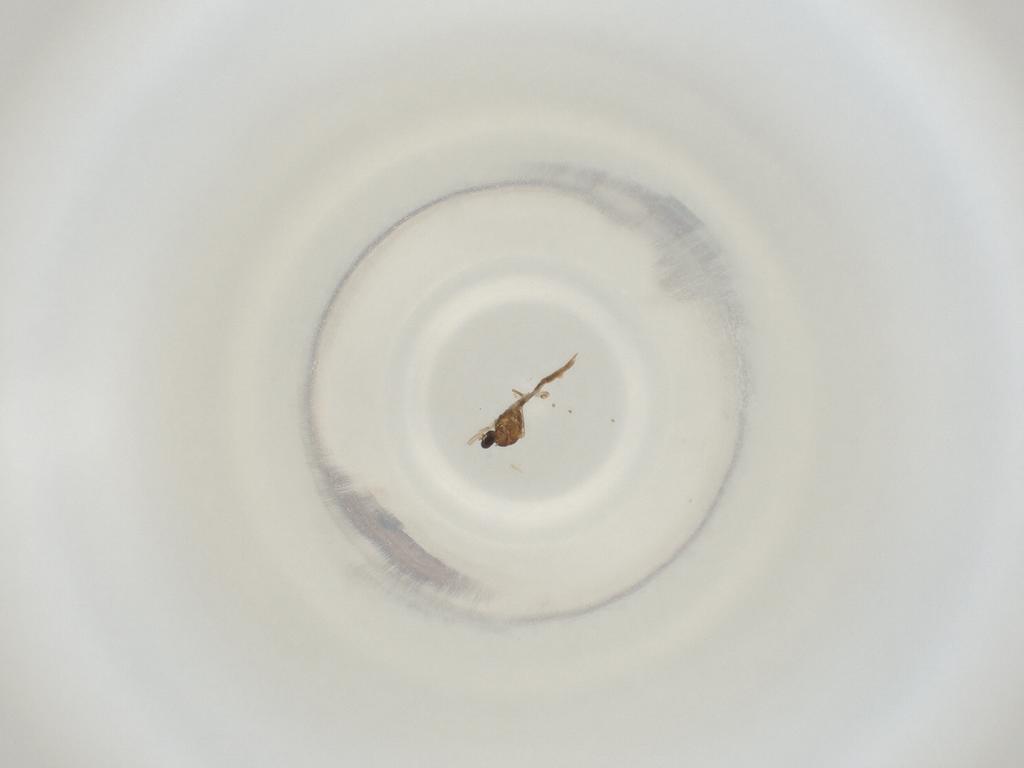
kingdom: Animalia
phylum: Arthropoda
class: Insecta
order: Diptera
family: Cecidomyiidae
